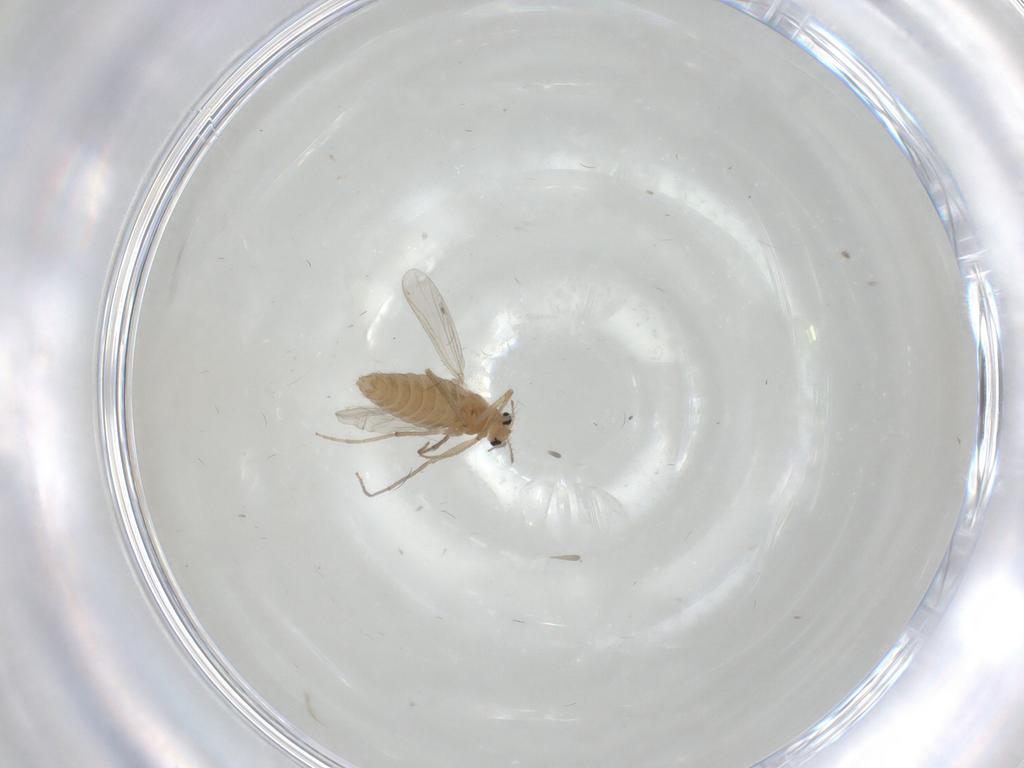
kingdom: Animalia
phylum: Arthropoda
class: Insecta
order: Diptera
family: Chironomidae
